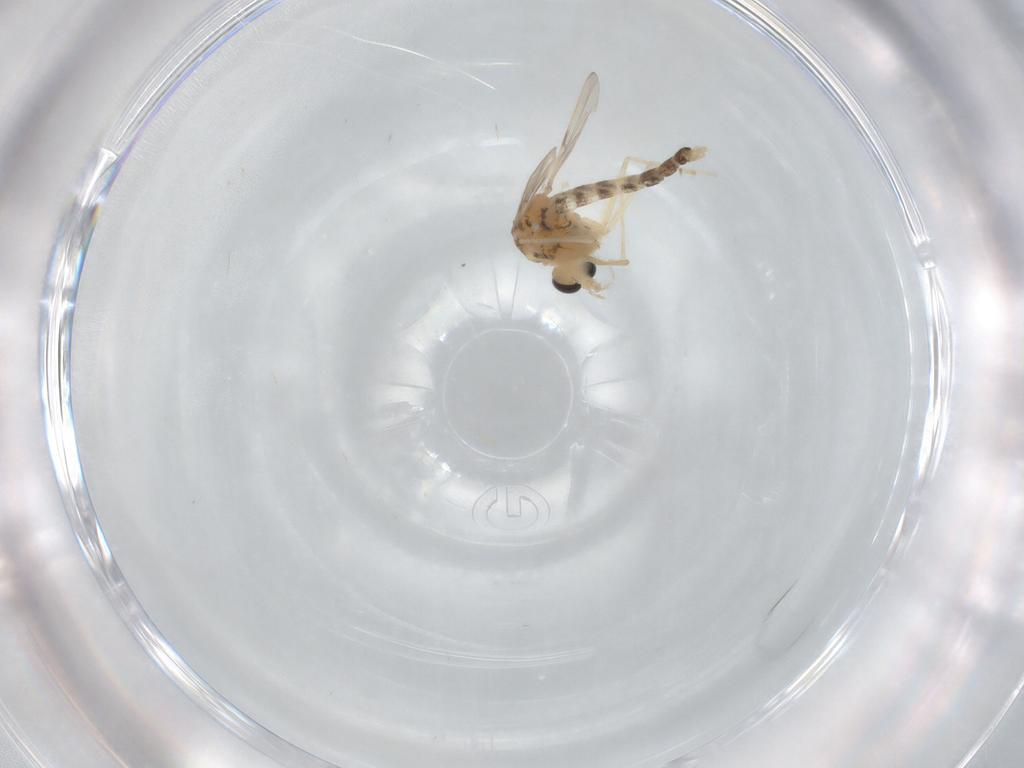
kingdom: Animalia
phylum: Arthropoda
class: Insecta
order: Diptera
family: Chironomidae
